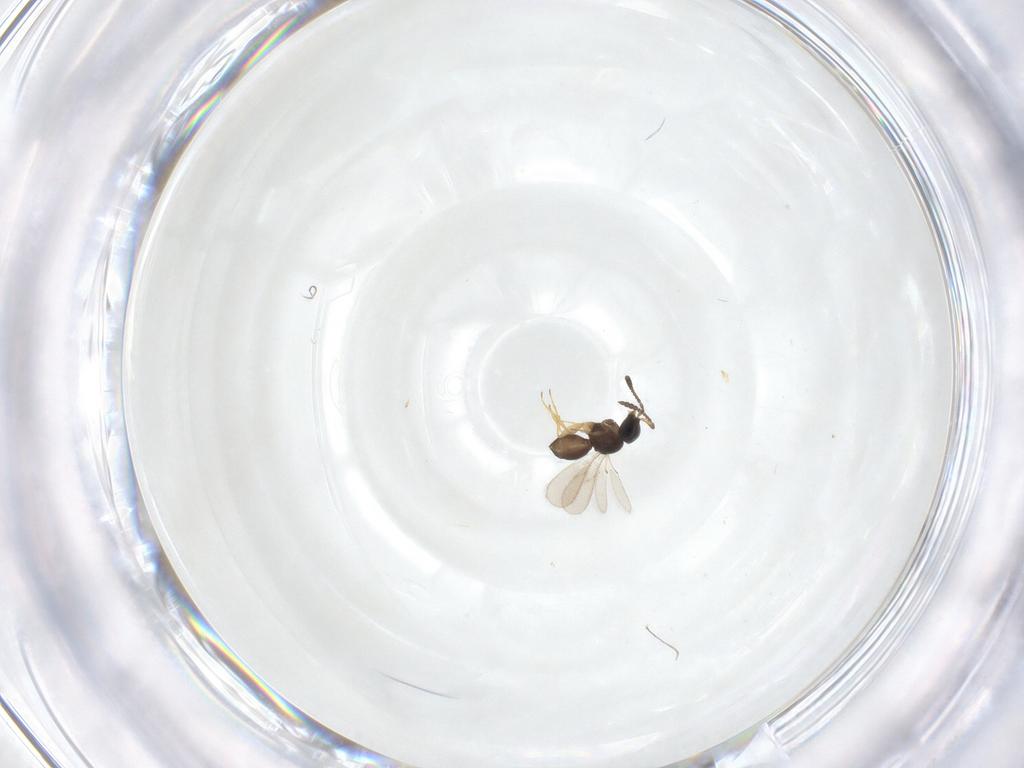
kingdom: Animalia
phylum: Arthropoda
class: Insecta
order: Hymenoptera
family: Scelionidae
